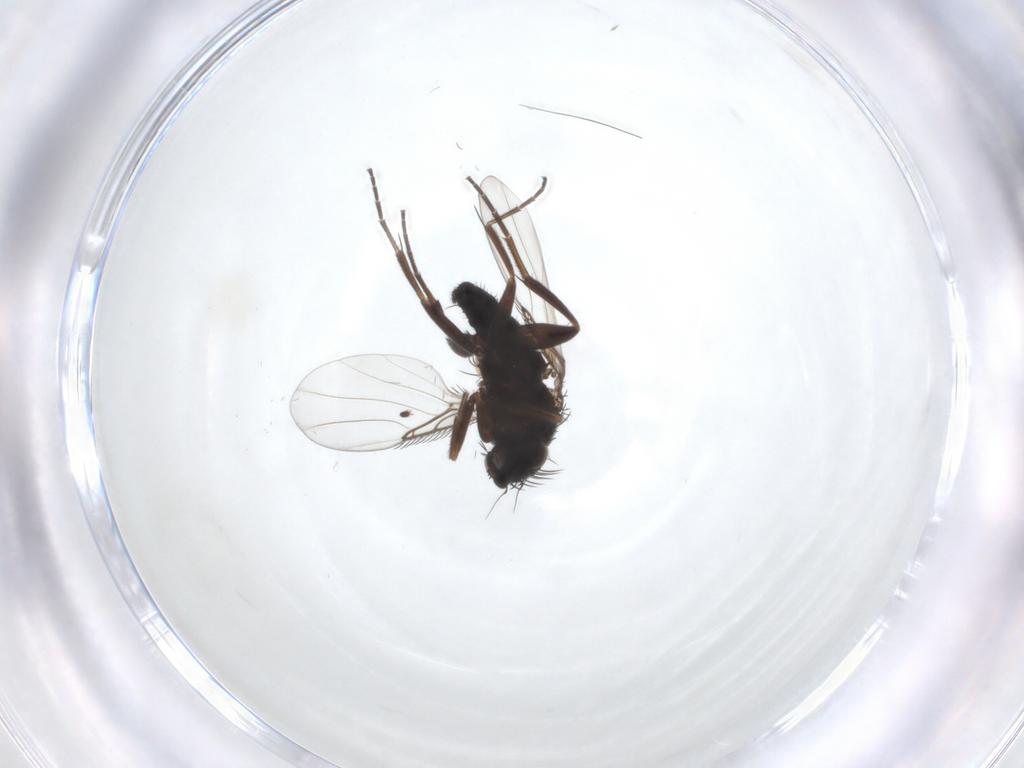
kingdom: Animalia
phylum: Arthropoda
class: Insecta
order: Diptera
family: Phoridae
